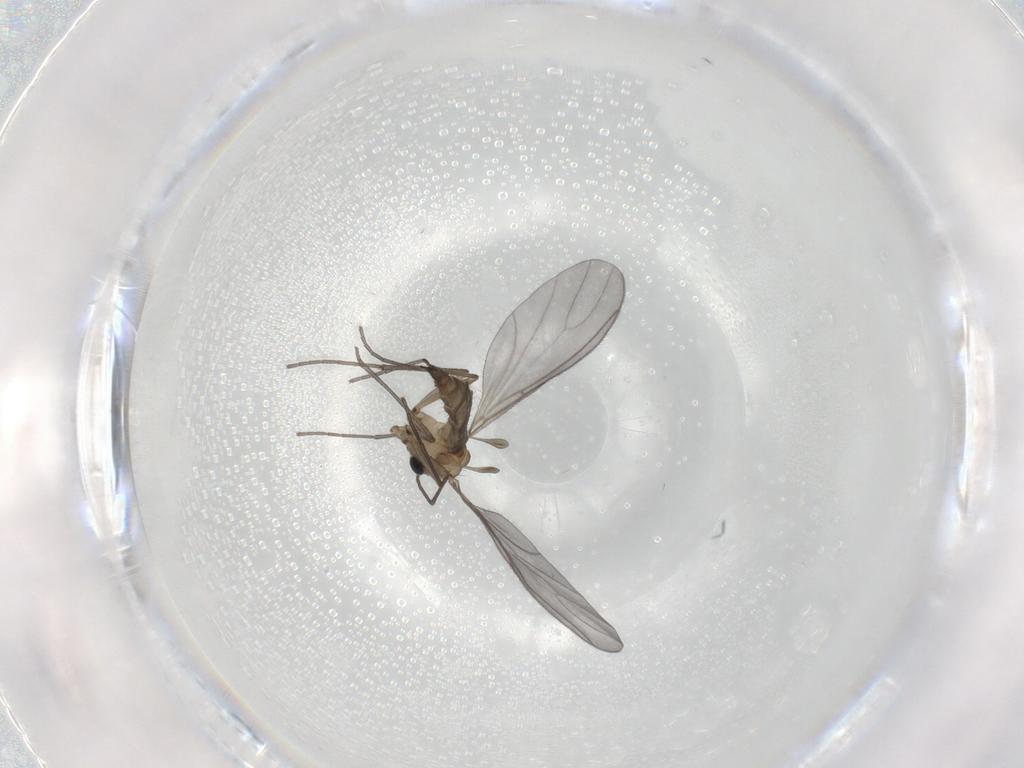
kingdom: Animalia
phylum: Arthropoda
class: Insecta
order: Diptera
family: Sciaridae
